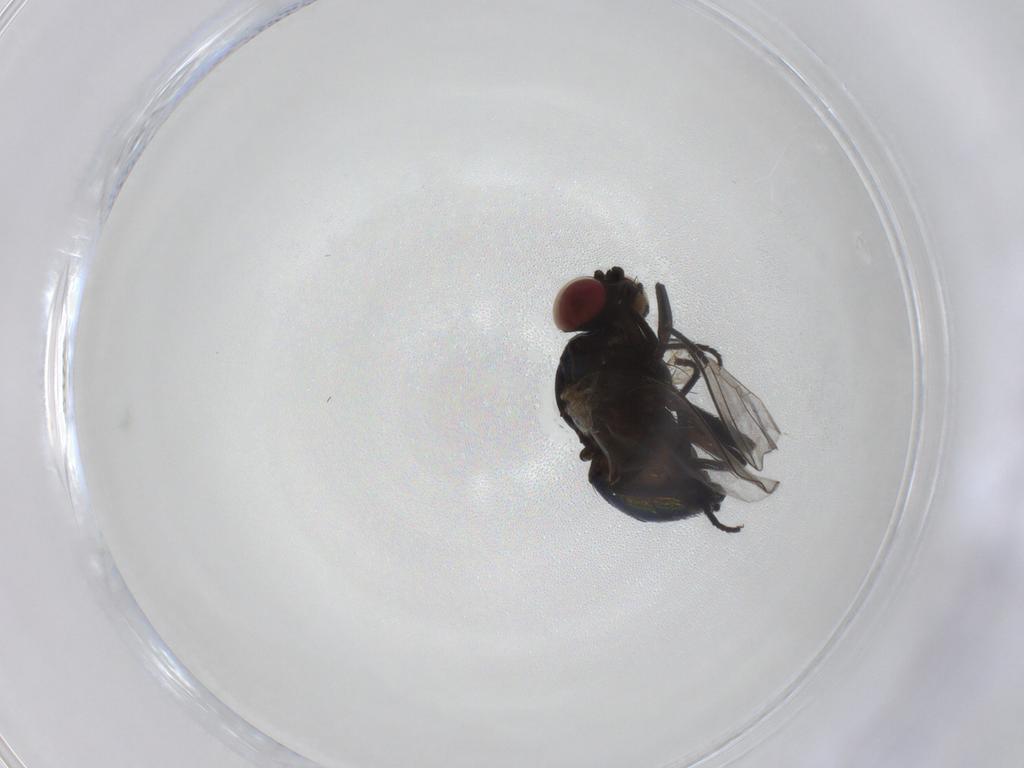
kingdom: Animalia
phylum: Arthropoda
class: Insecta
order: Diptera
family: Agromyzidae
